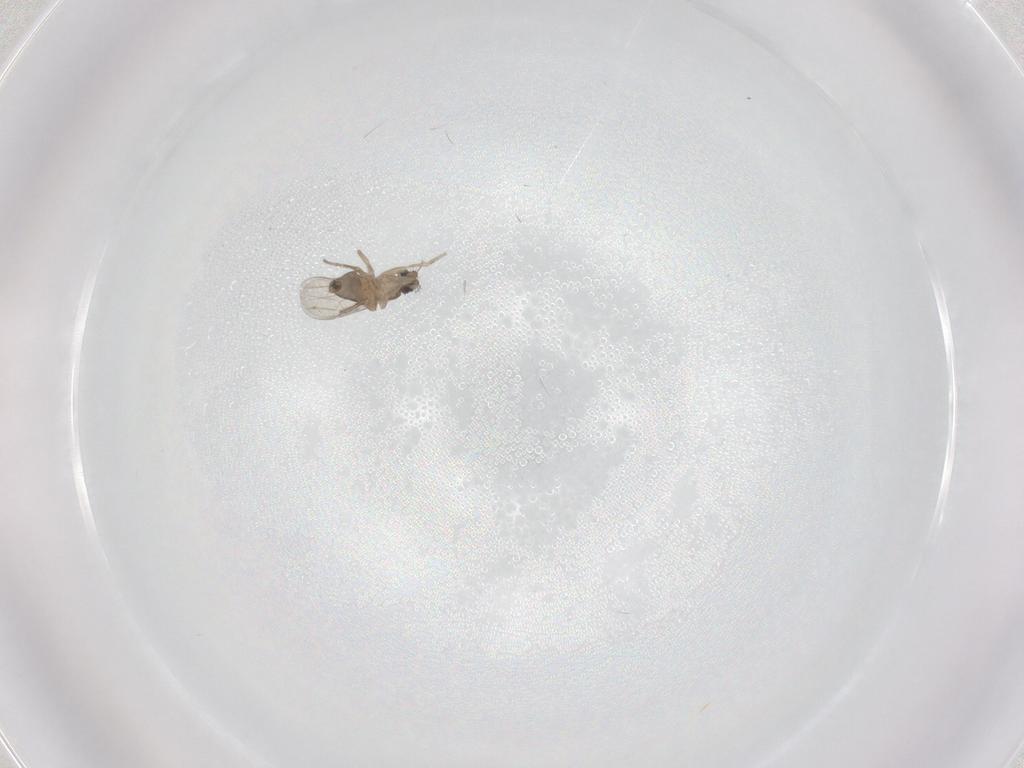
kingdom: Animalia
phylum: Arthropoda
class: Insecta
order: Diptera
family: Phoridae
